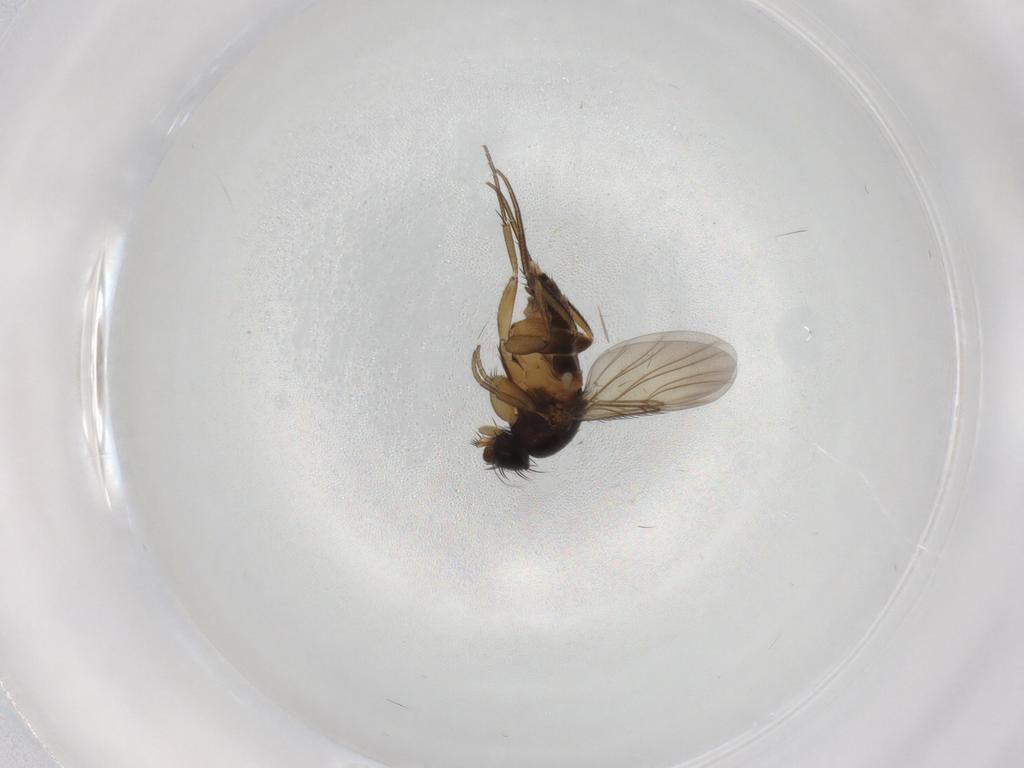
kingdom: Animalia
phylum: Arthropoda
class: Insecta
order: Diptera
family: Phoridae
